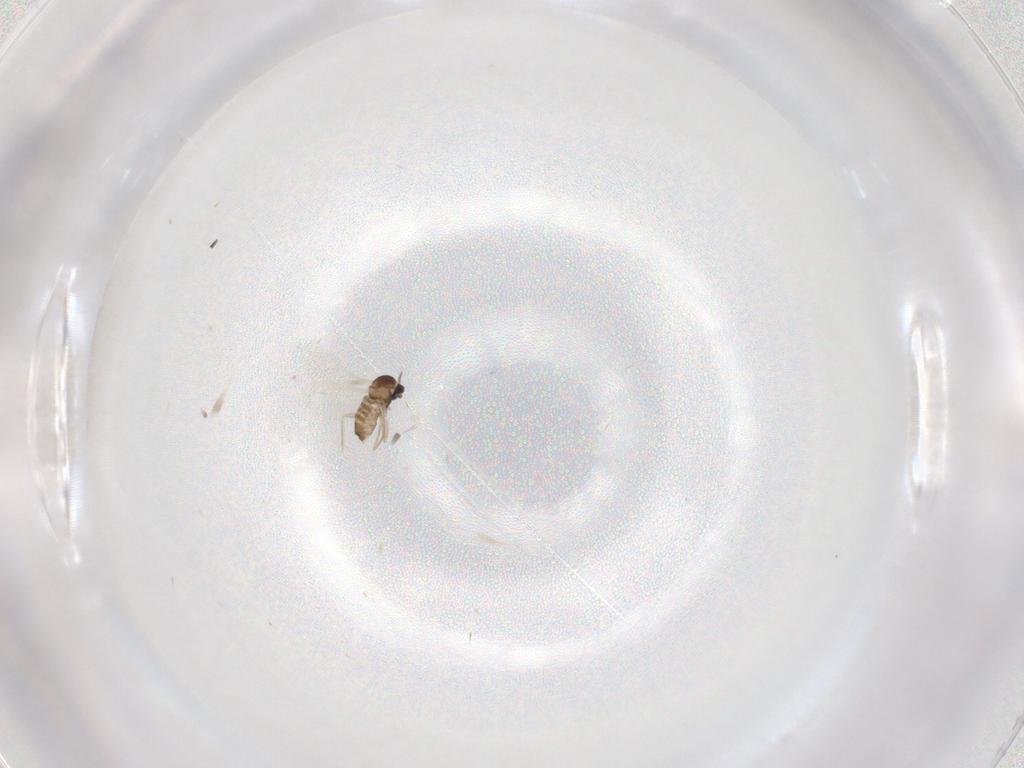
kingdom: Animalia
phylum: Arthropoda
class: Insecta
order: Diptera
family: Cecidomyiidae
